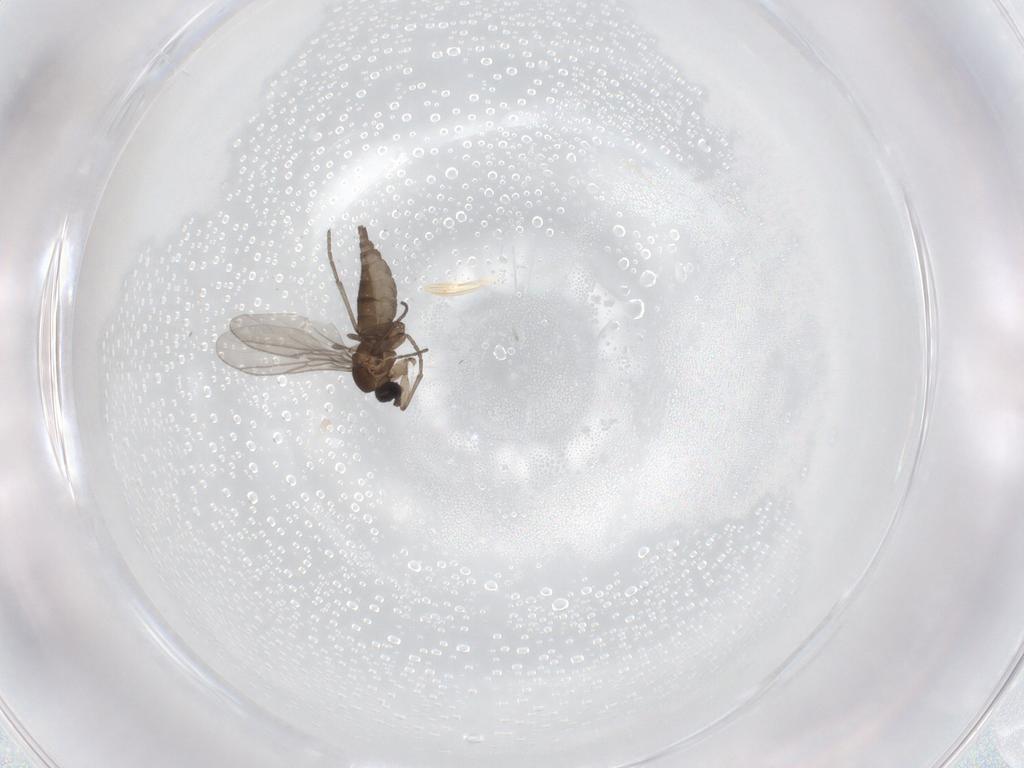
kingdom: Animalia
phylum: Arthropoda
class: Insecta
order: Diptera
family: Sciaridae
